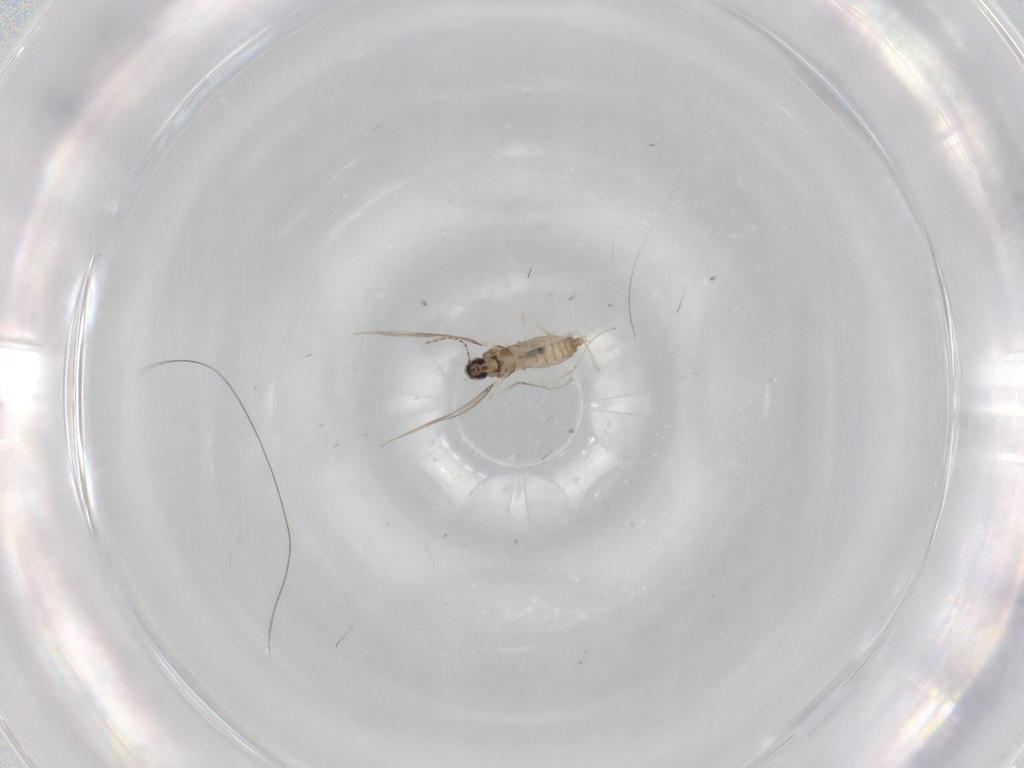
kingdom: Animalia
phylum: Arthropoda
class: Insecta
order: Diptera
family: Cecidomyiidae
